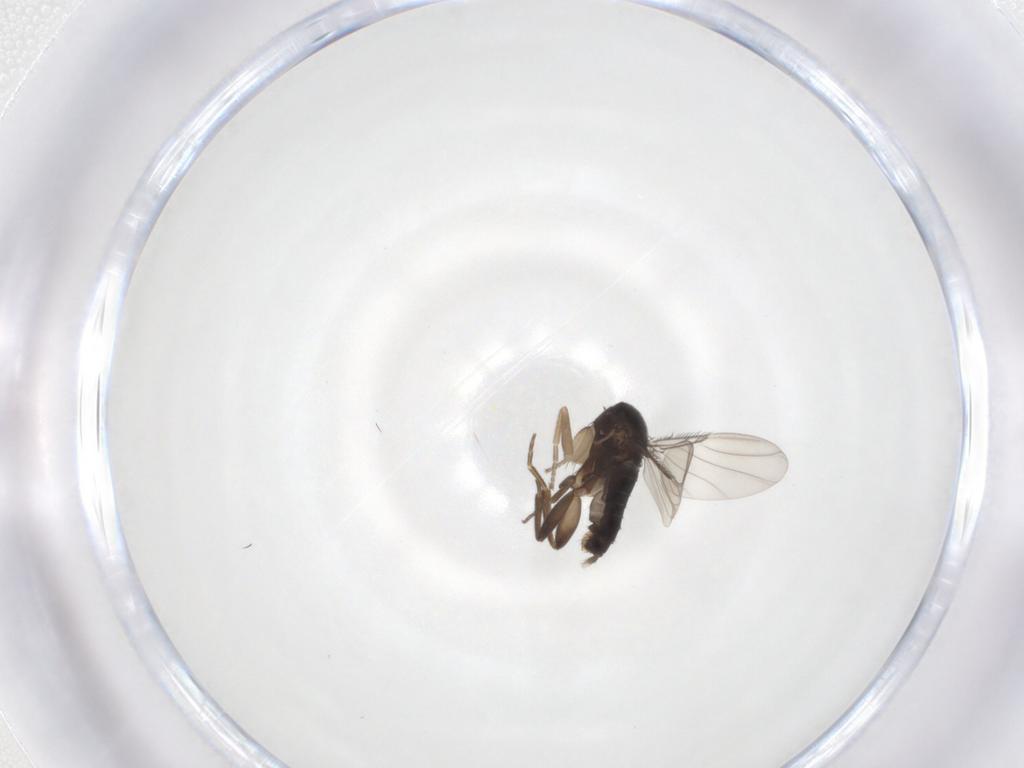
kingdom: Animalia
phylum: Arthropoda
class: Insecta
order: Diptera
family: Phoridae
